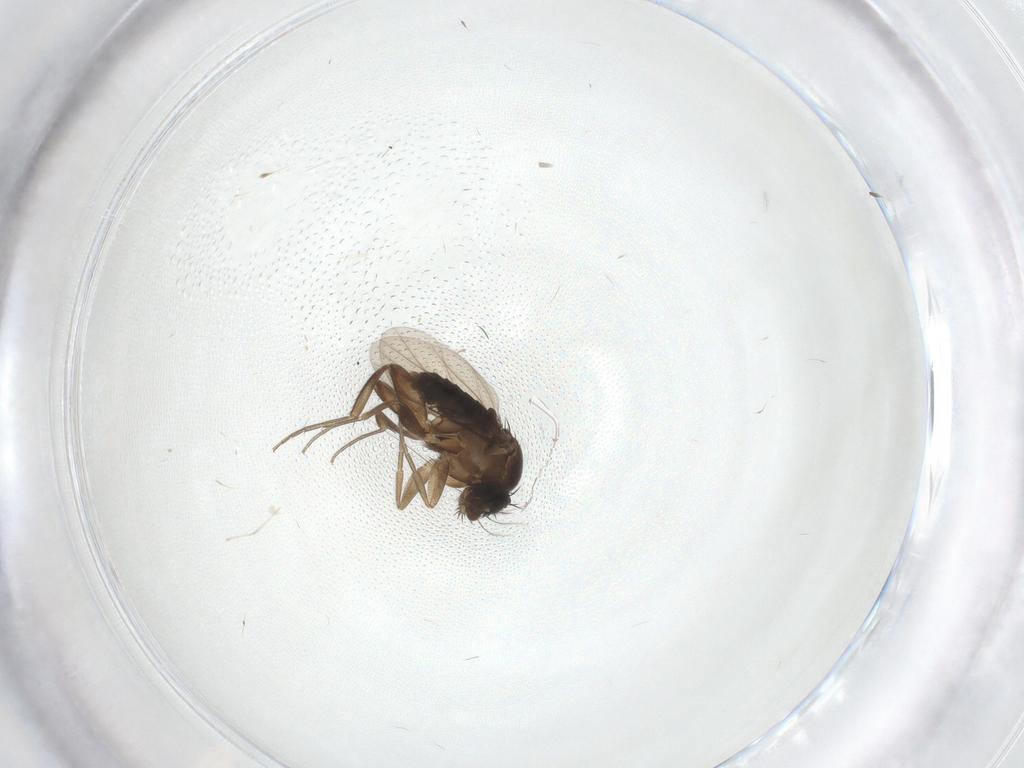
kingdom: Animalia
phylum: Arthropoda
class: Insecta
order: Diptera
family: Phoridae
